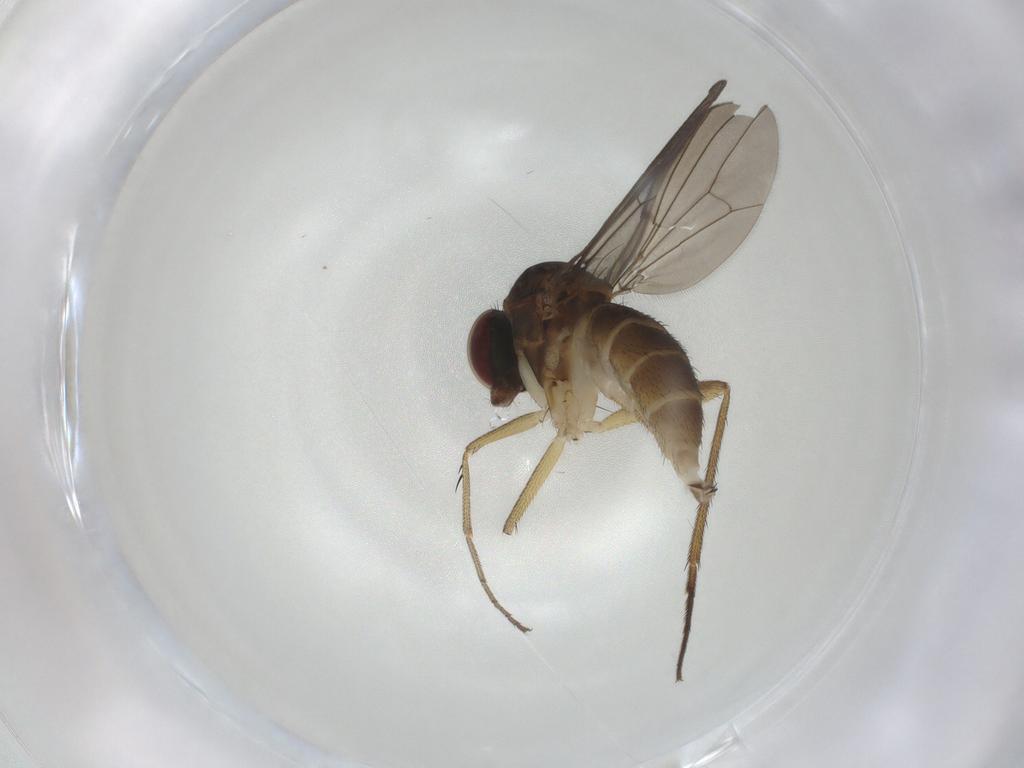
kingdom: Animalia
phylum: Arthropoda
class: Insecta
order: Diptera
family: Dolichopodidae
